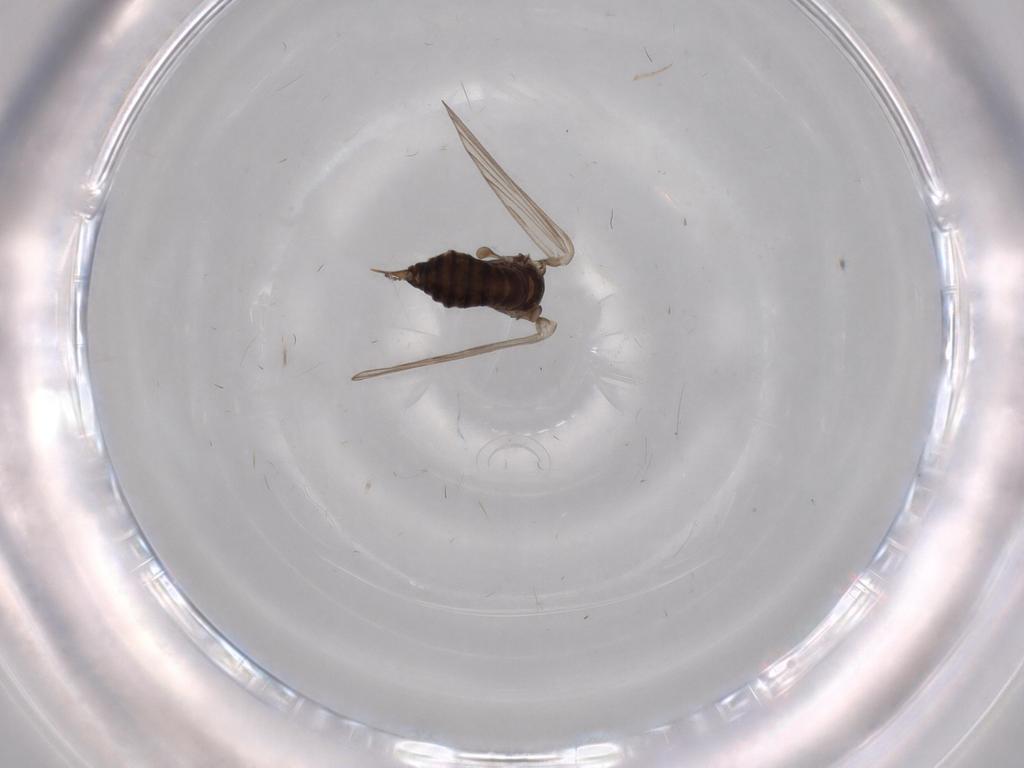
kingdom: Animalia
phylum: Arthropoda
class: Insecta
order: Diptera
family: Psychodidae
